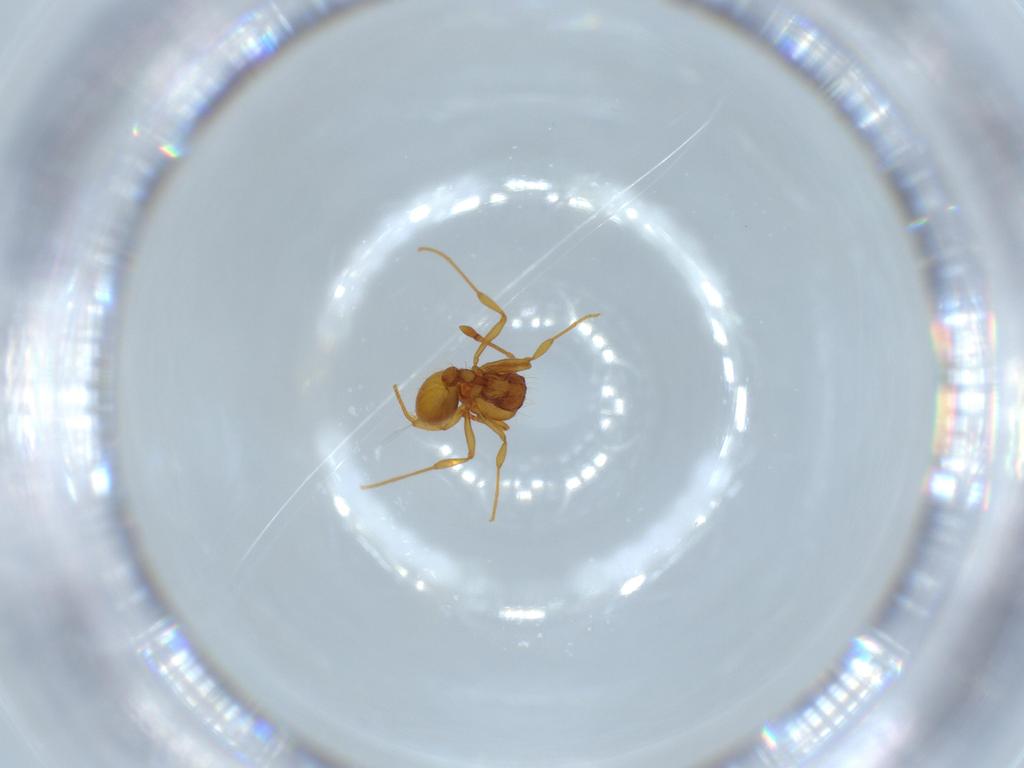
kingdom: Animalia
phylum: Arthropoda
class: Insecta
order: Hymenoptera
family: Formicidae
